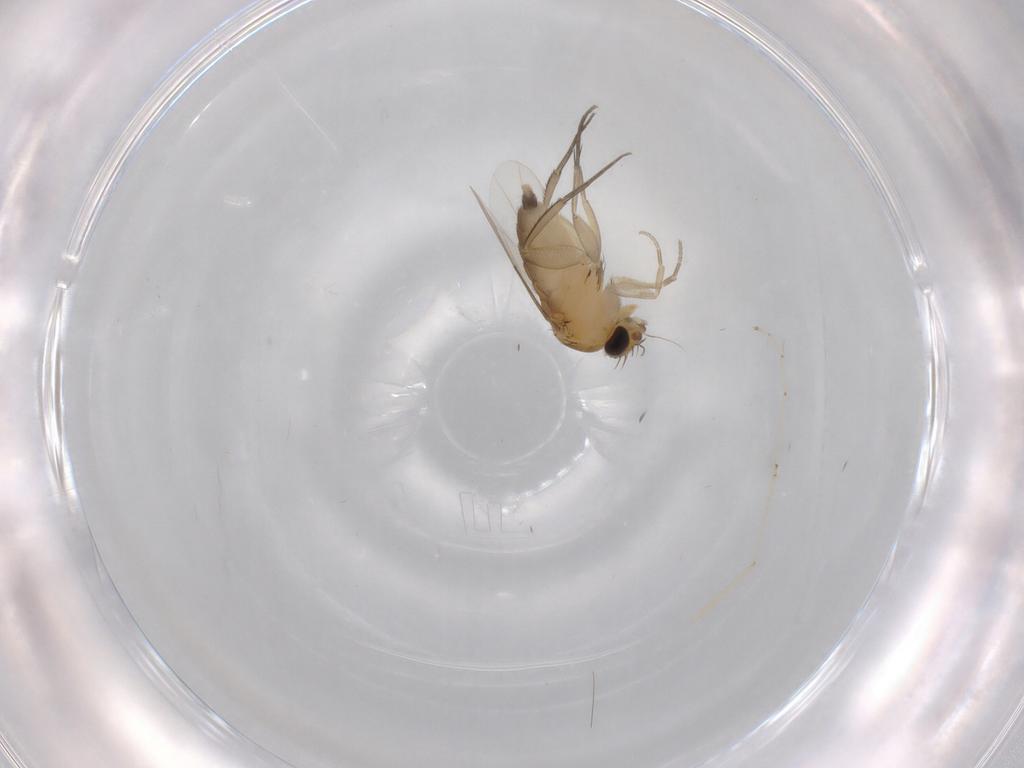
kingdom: Animalia
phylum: Arthropoda
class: Insecta
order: Diptera
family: Phoridae
